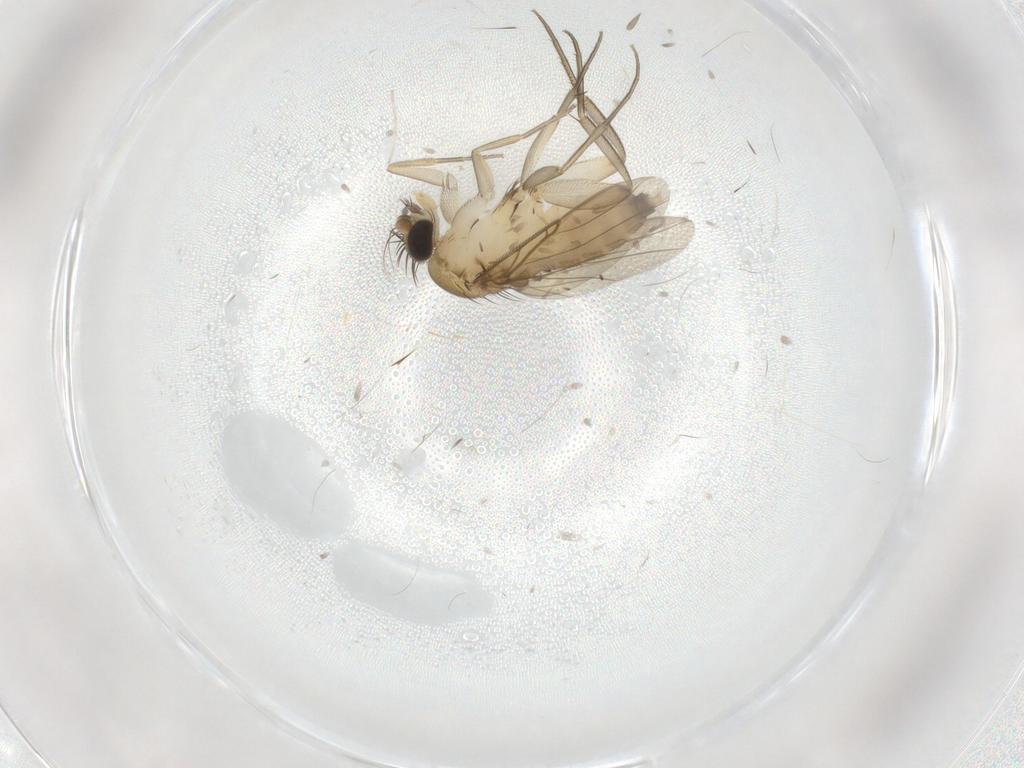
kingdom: Animalia
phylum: Arthropoda
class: Insecta
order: Diptera
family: Phoridae
